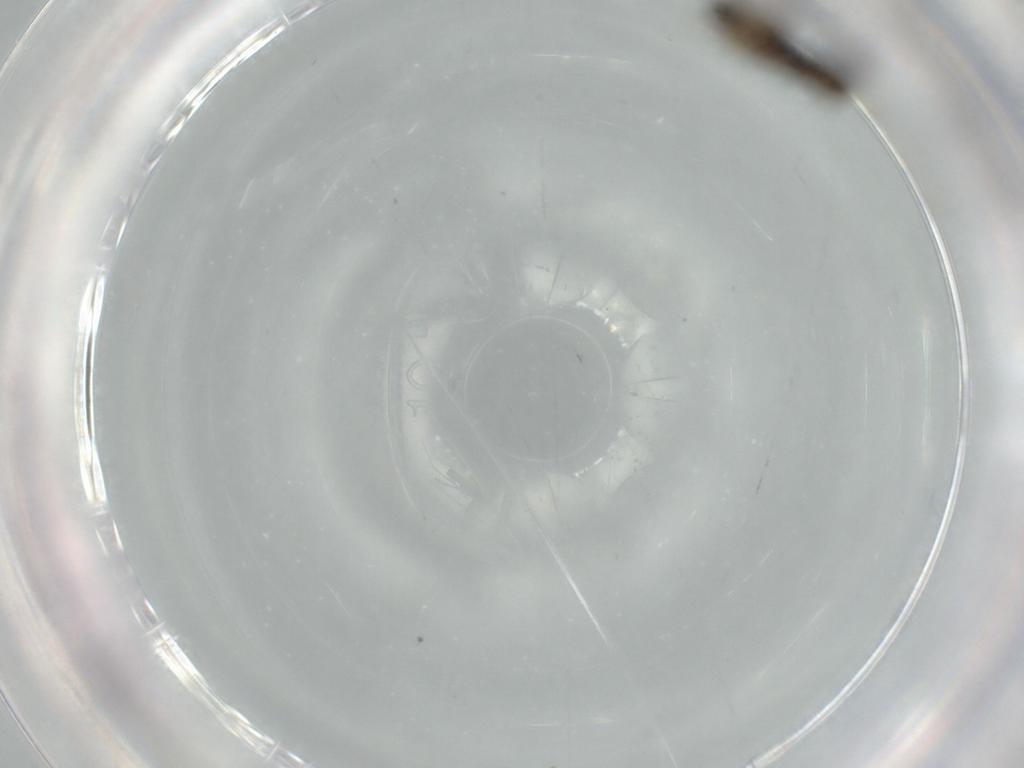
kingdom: Animalia
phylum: Arthropoda
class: Insecta
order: Diptera
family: Cecidomyiidae
